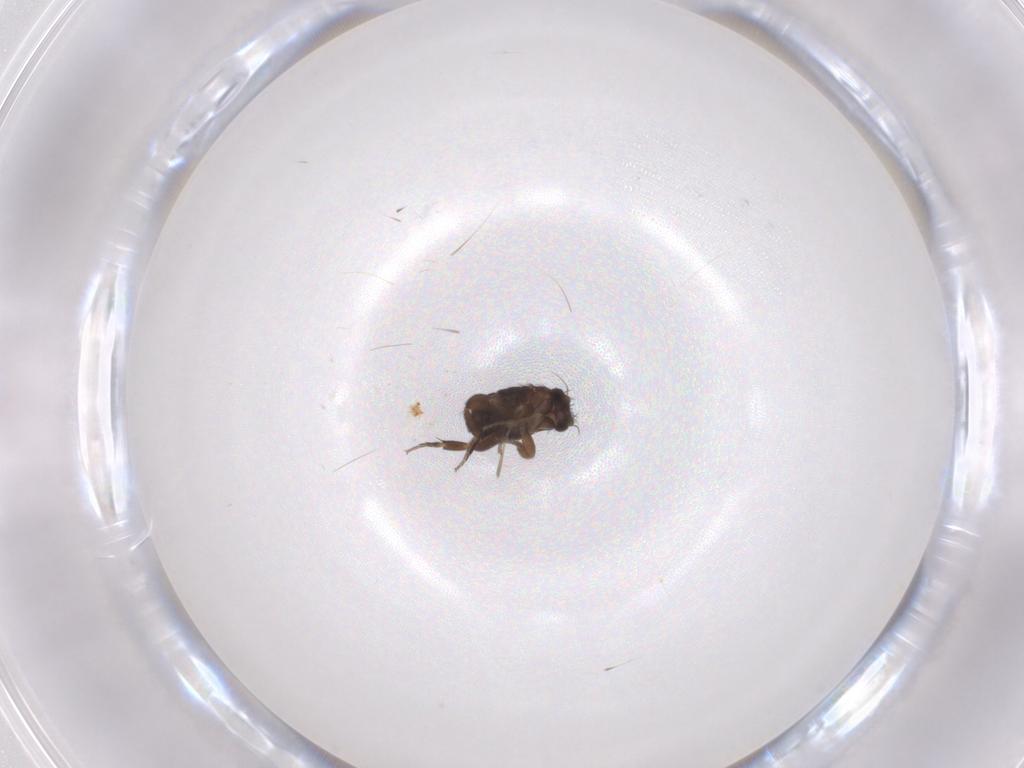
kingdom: Animalia
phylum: Arthropoda
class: Insecta
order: Diptera
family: Phoridae
